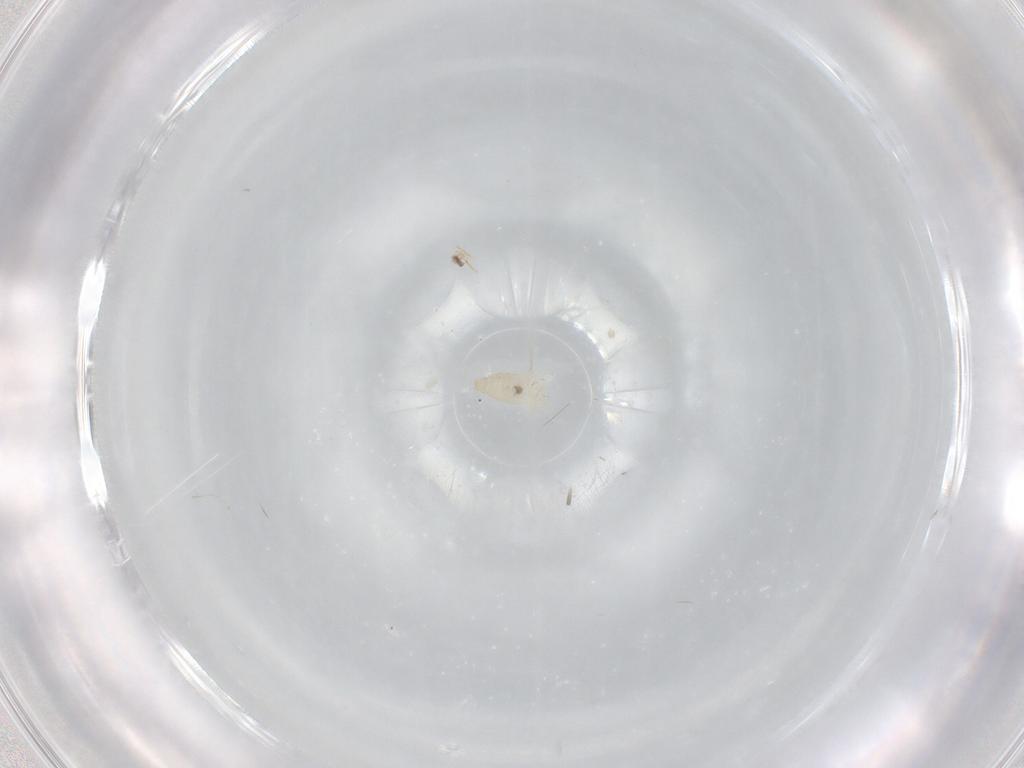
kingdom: Animalia
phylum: Arthropoda
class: Insecta
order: Diptera
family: Cecidomyiidae
